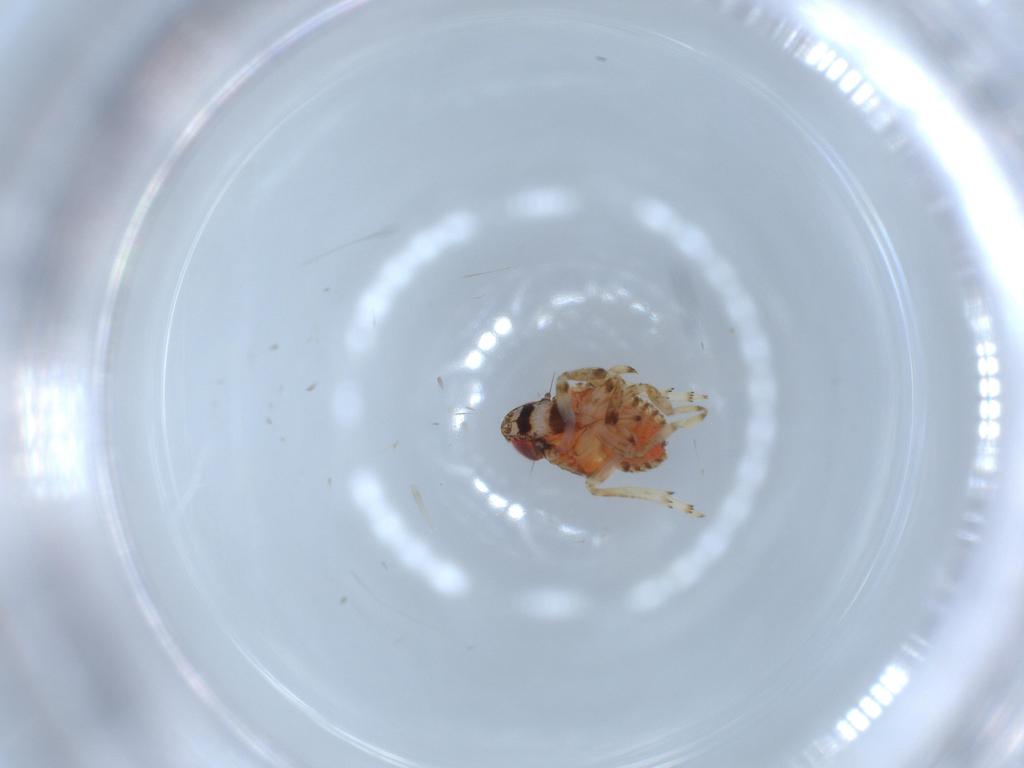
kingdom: Animalia
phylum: Arthropoda
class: Insecta
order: Hemiptera
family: Issidae
